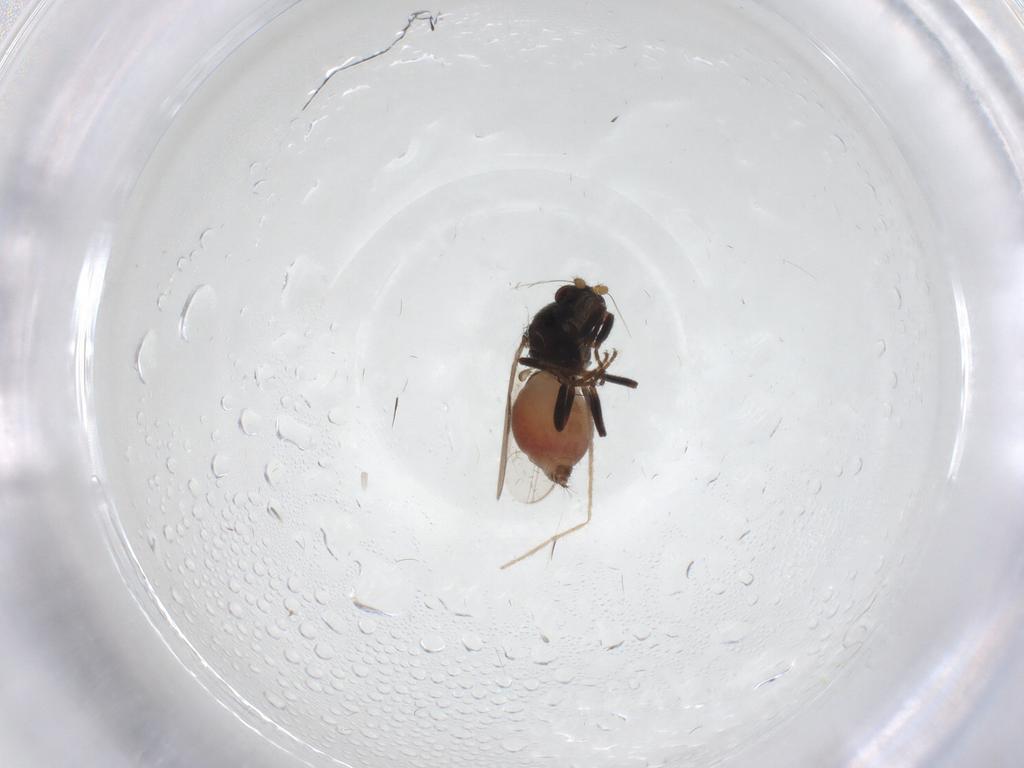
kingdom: Animalia
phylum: Arthropoda
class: Insecta
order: Diptera
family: Sphaeroceridae
